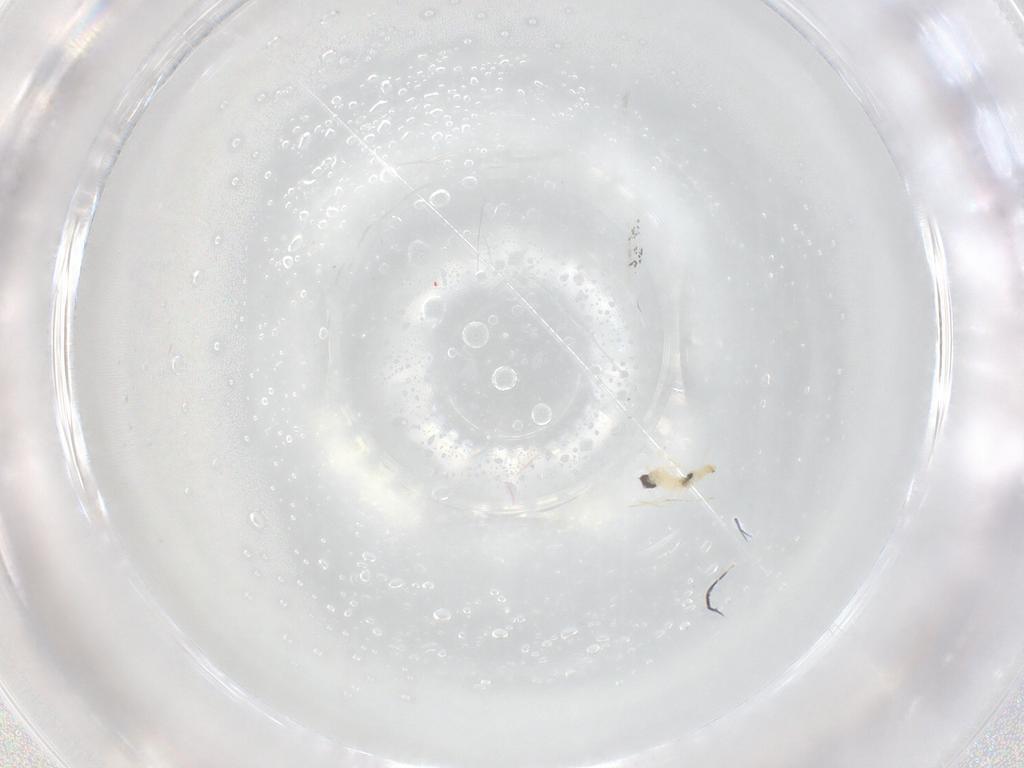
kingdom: Animalia
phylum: Arthropoda
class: Insecta
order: Diptera
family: Cecidomyiidae
